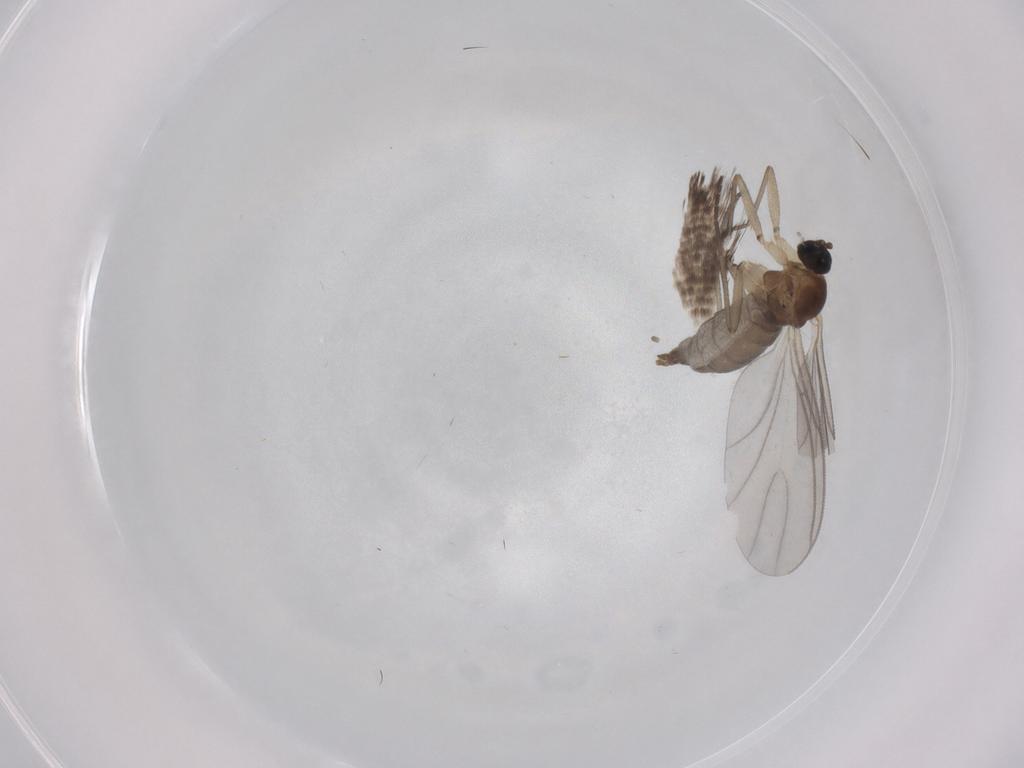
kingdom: Animalia
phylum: Arthropoda
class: Insecta
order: Diptera
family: Sciaridae
